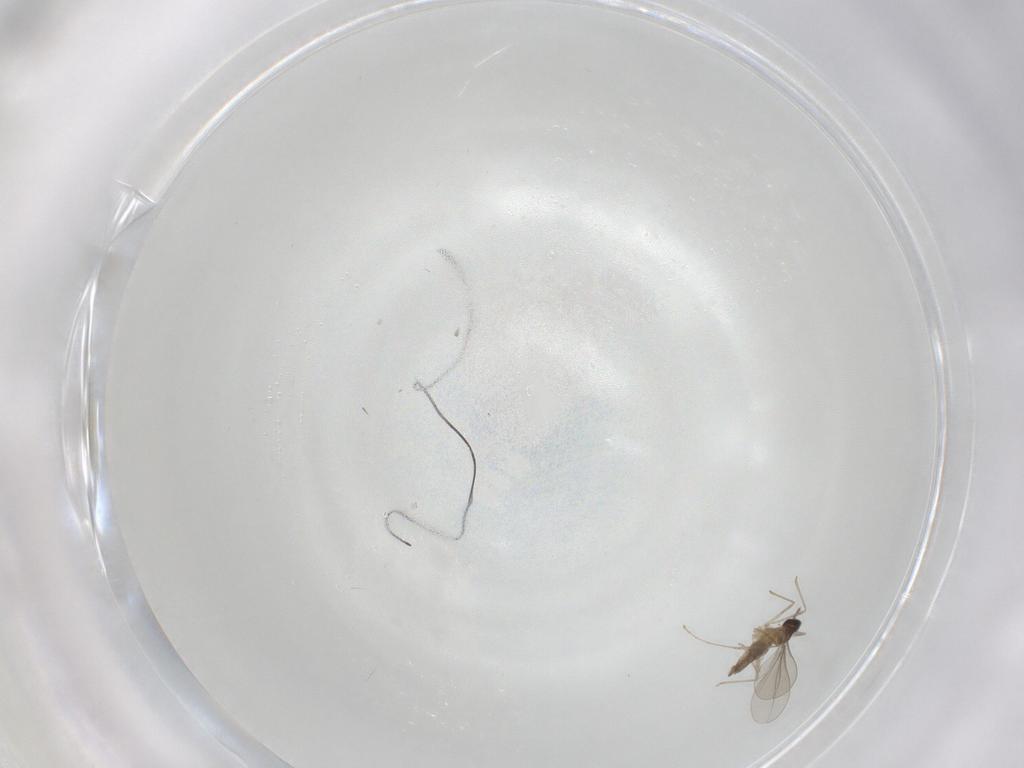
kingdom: Animalia
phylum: Arthropoda
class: Insecta
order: Diptera
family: Cecidomyiidae
